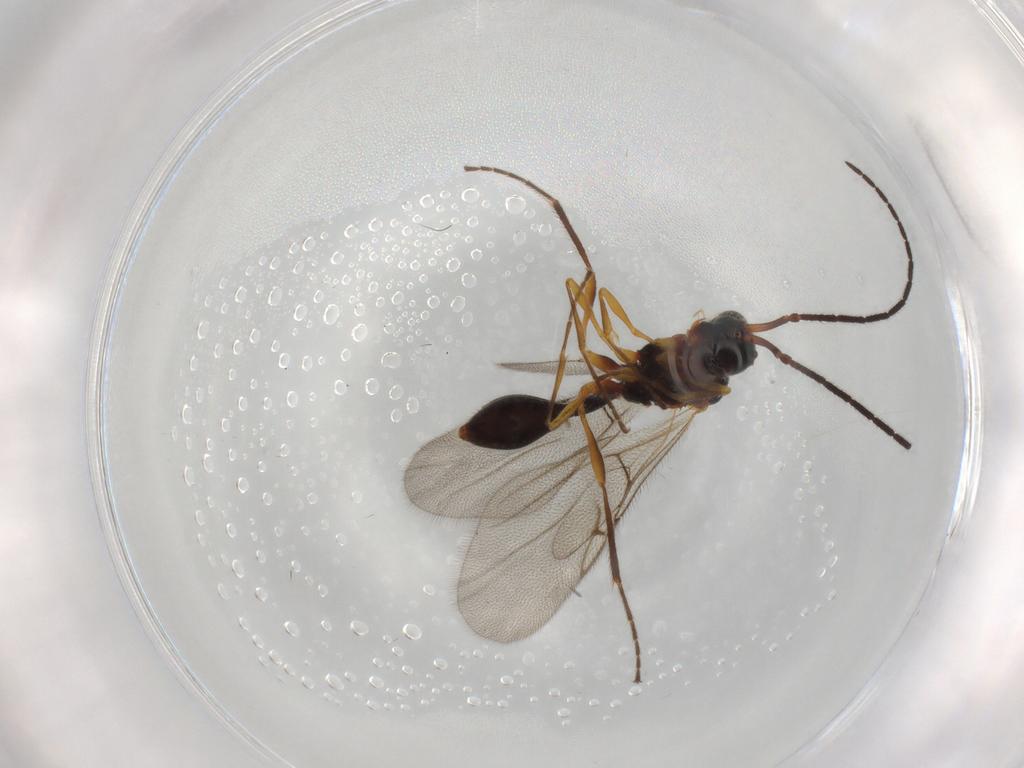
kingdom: Animalia
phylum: Arthropoda
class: Insecta
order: Hymenoptera
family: Diapriidae
